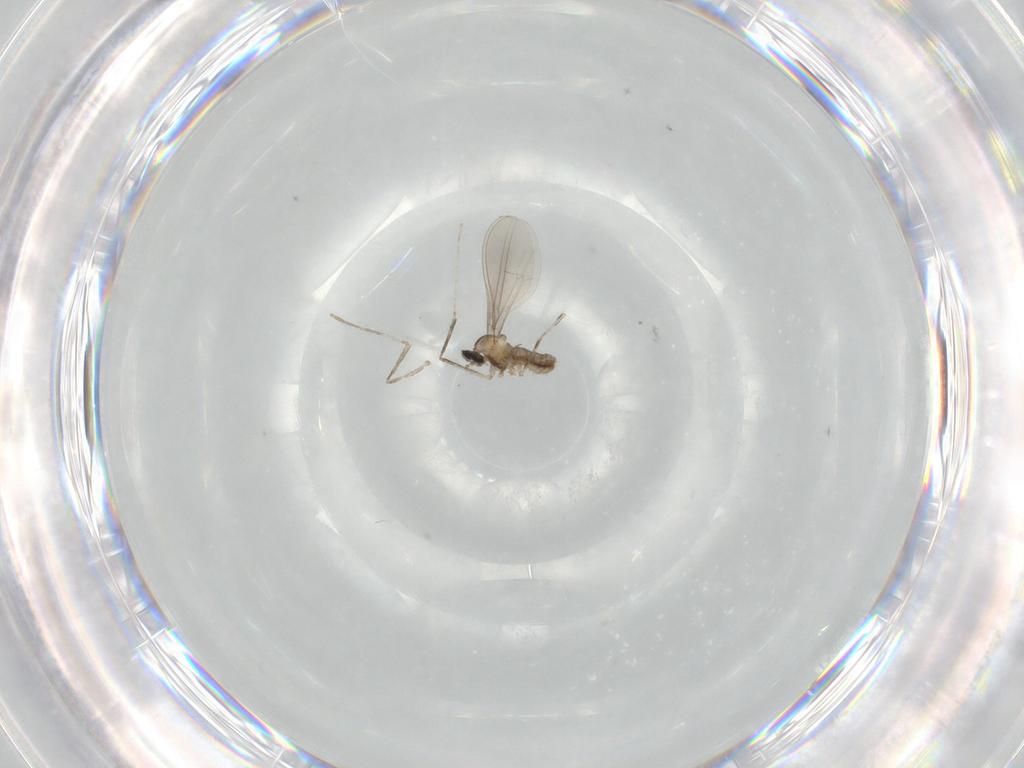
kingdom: Animalia
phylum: Arthropoda
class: Insecta
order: Diptera
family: Cecidomyiidae
